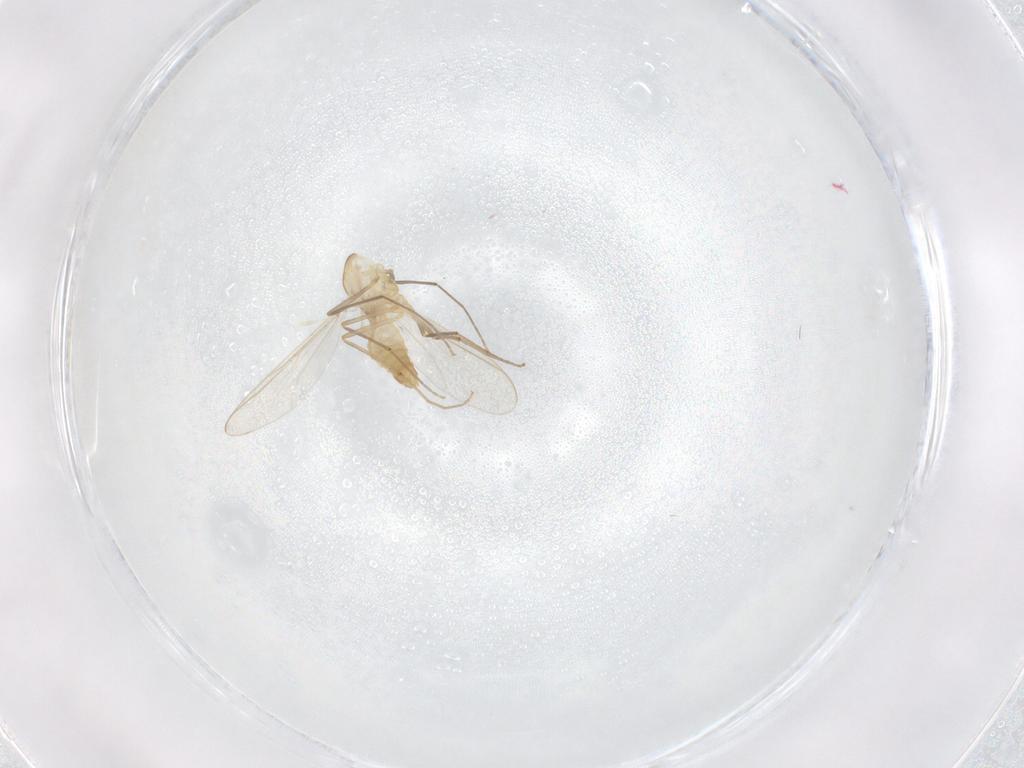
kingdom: Animalia
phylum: Arthropoda
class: Insecta
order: Diptera
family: Chironomidae
